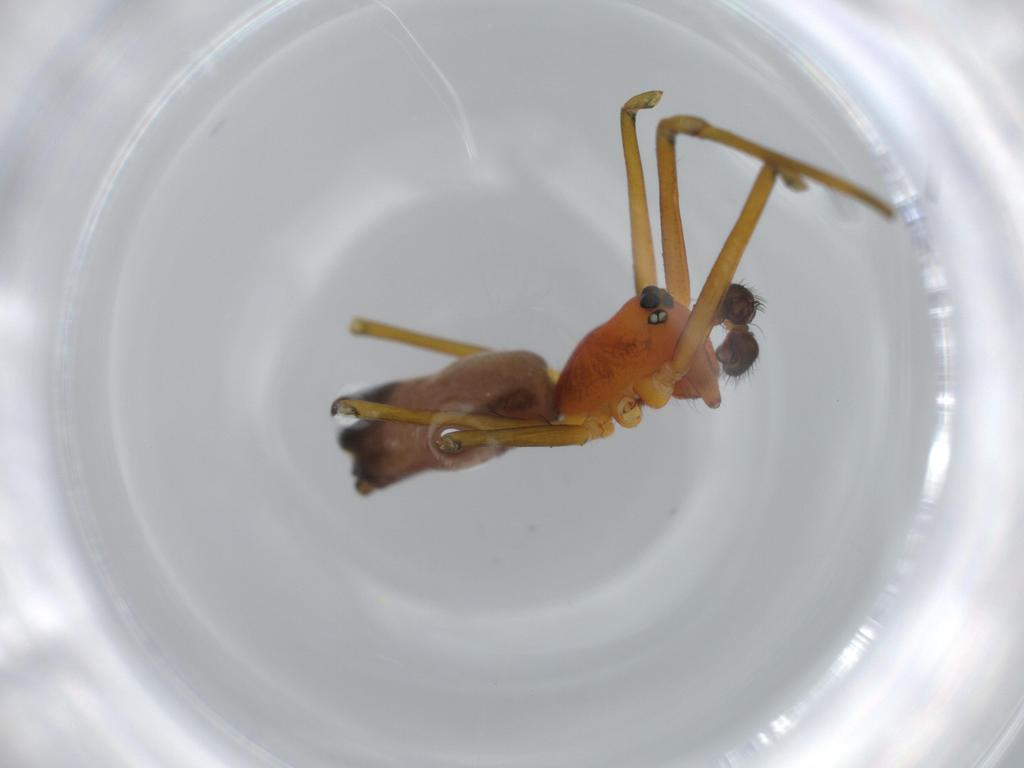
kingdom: Animalia
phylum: Arthropoda
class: Arachnida
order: Araneae
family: Linyphiidae
